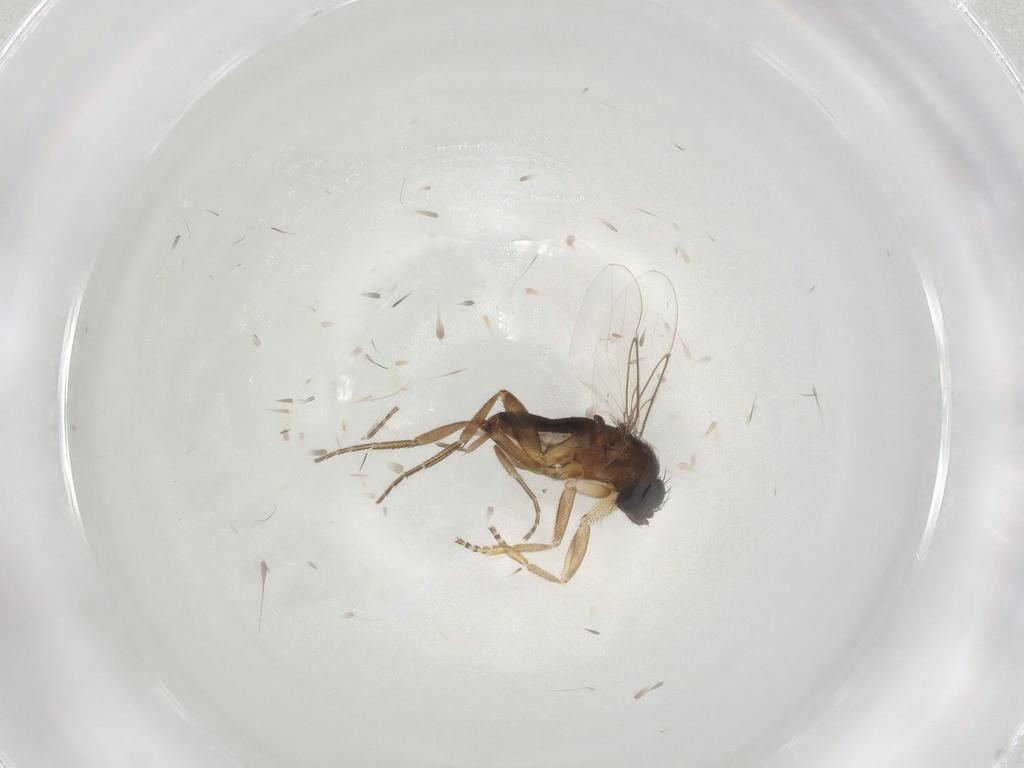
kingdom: Animalia
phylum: Arthropoda
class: Insecta
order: Diptera
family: Phoridae
